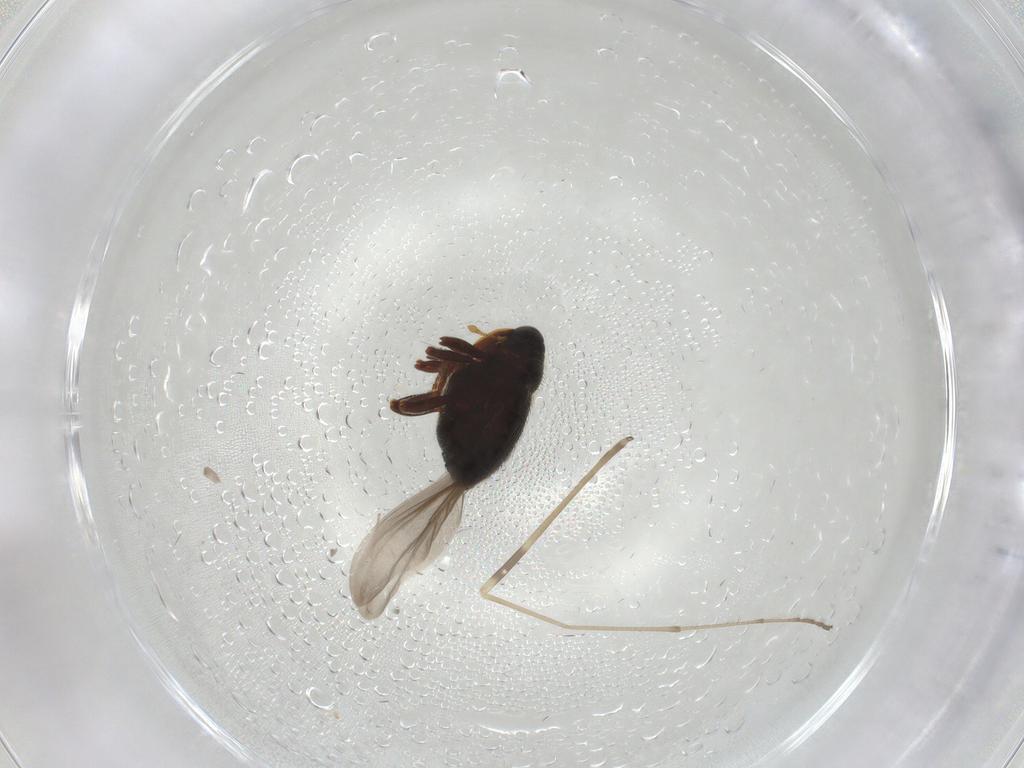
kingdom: Animalia
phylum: Arthropoda
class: Insecta
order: Coleoptera
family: Curculionidae
